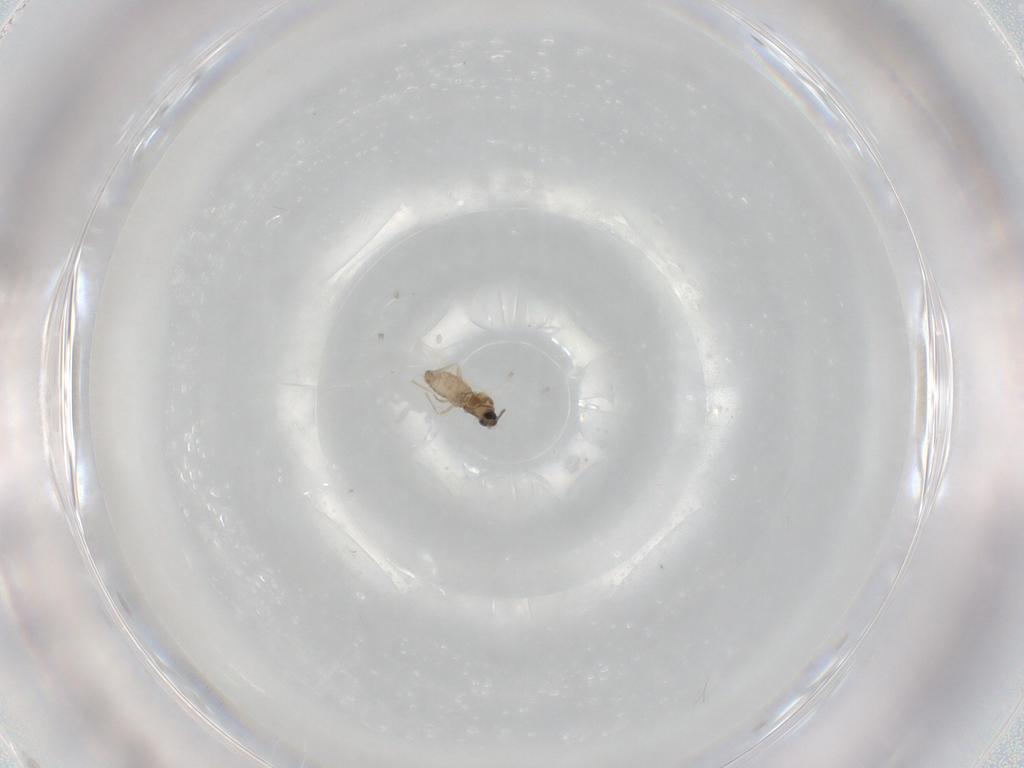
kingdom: Animalia
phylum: Arthropoda
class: Insecta
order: Diptera
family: Cecidomyiidae
